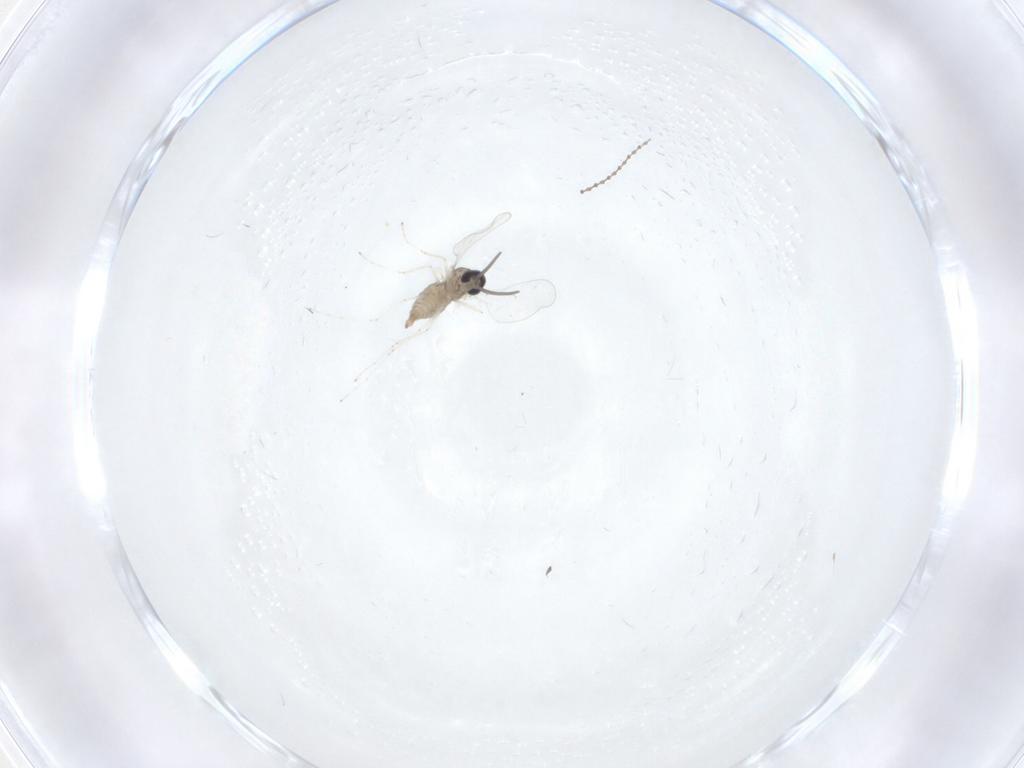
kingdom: Animalia
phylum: Arthropoda
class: Insecta
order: Diptera
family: Cecidomyiidae
